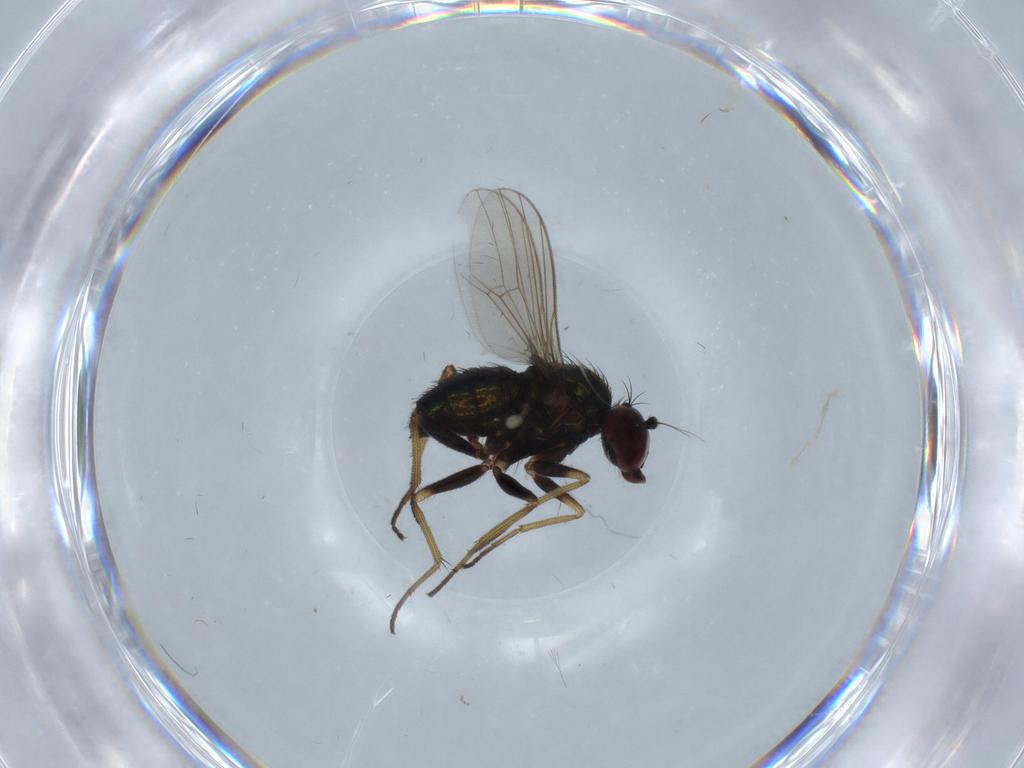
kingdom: Animalia
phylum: Arthropoda
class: Insecta
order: Diptera
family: Dolichopodidae
